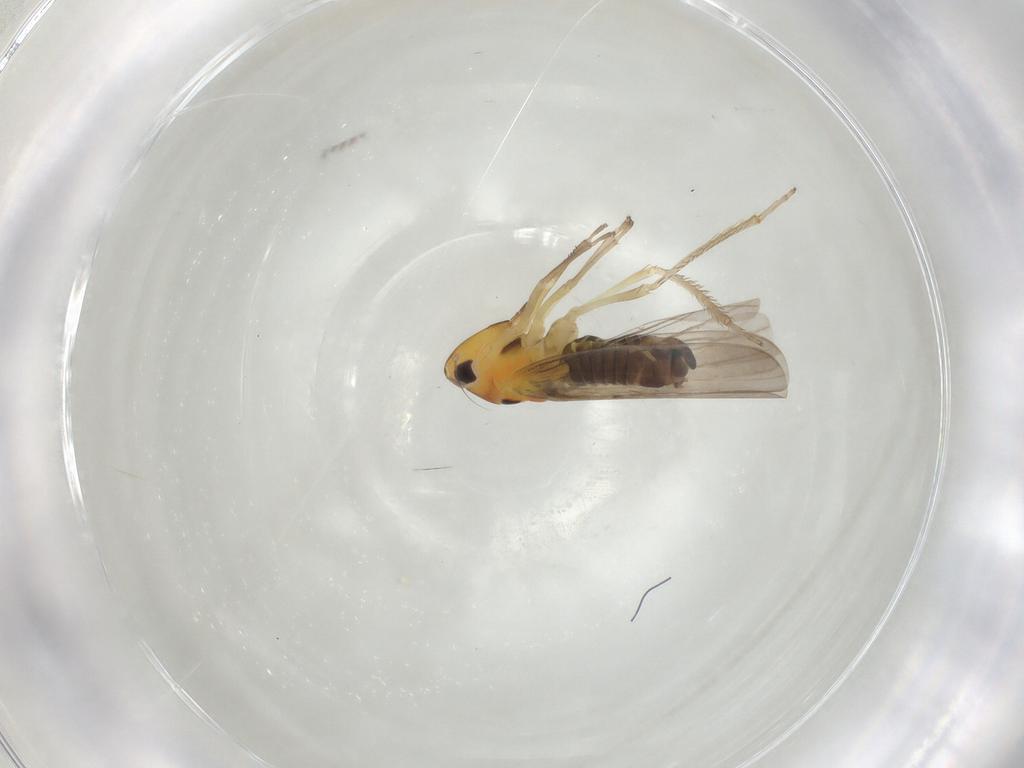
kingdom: Animalia
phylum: Arthropoda
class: Insecta
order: Hemiptera
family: Cicadellidae
